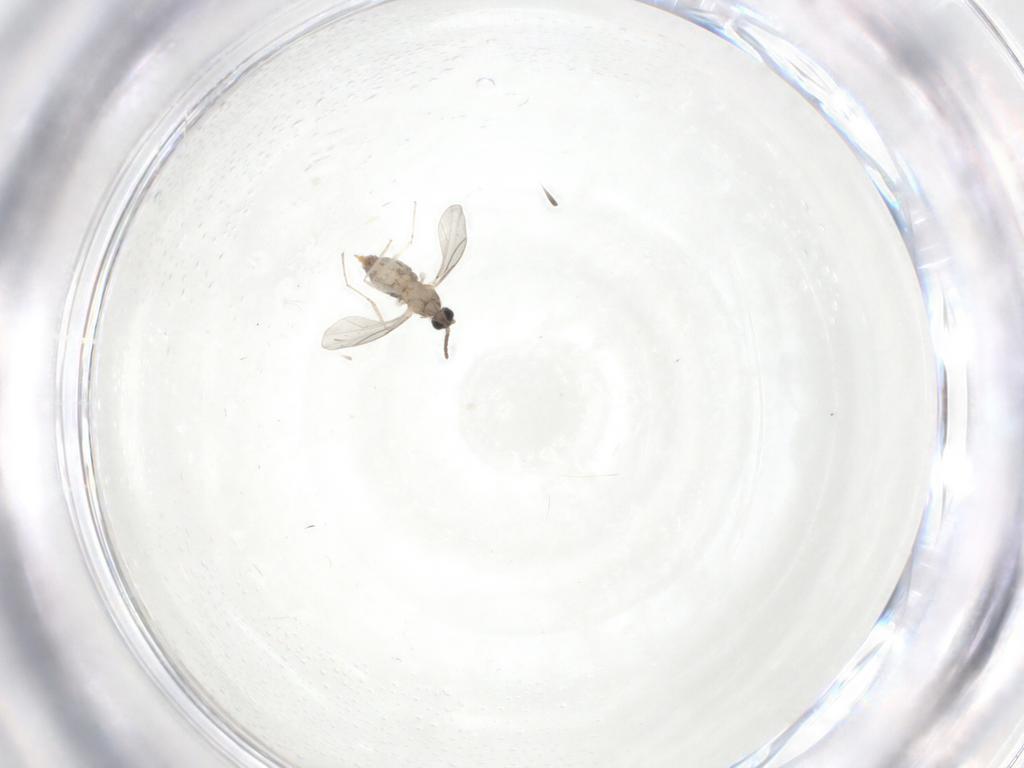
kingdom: Animalia
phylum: Arthropoda
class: Insecta
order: Diptera
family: Cecidomyiidae
